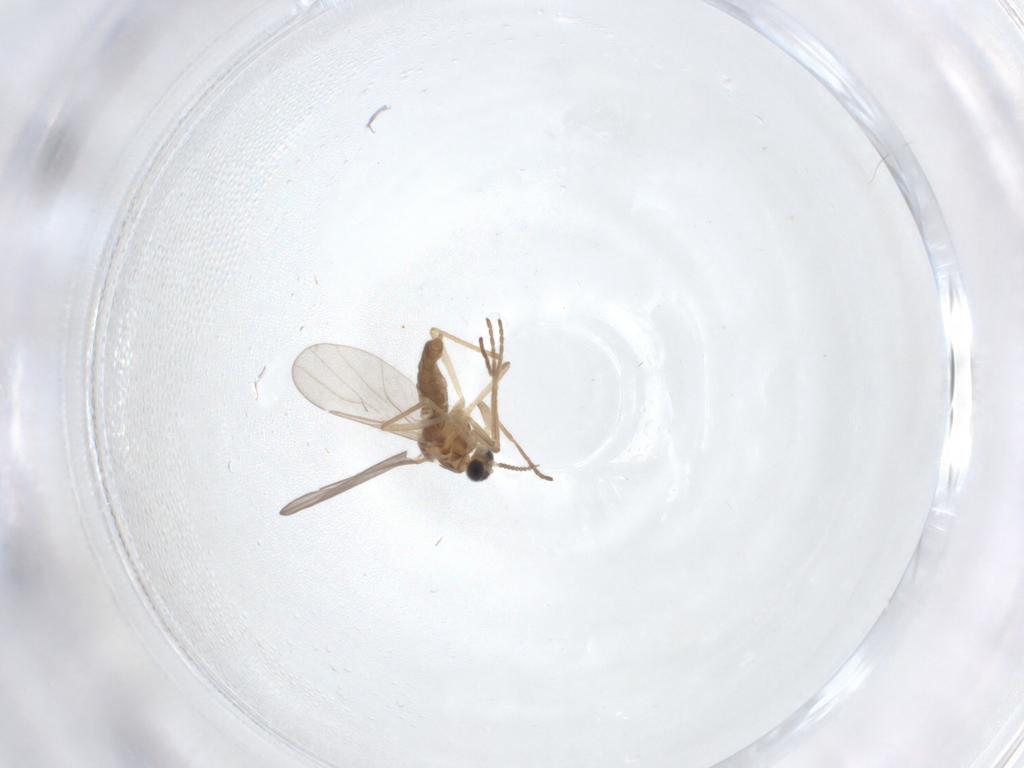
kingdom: Animalia
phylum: Arthropoda
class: Insecta
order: Diptera
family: Cecidomyiidae
